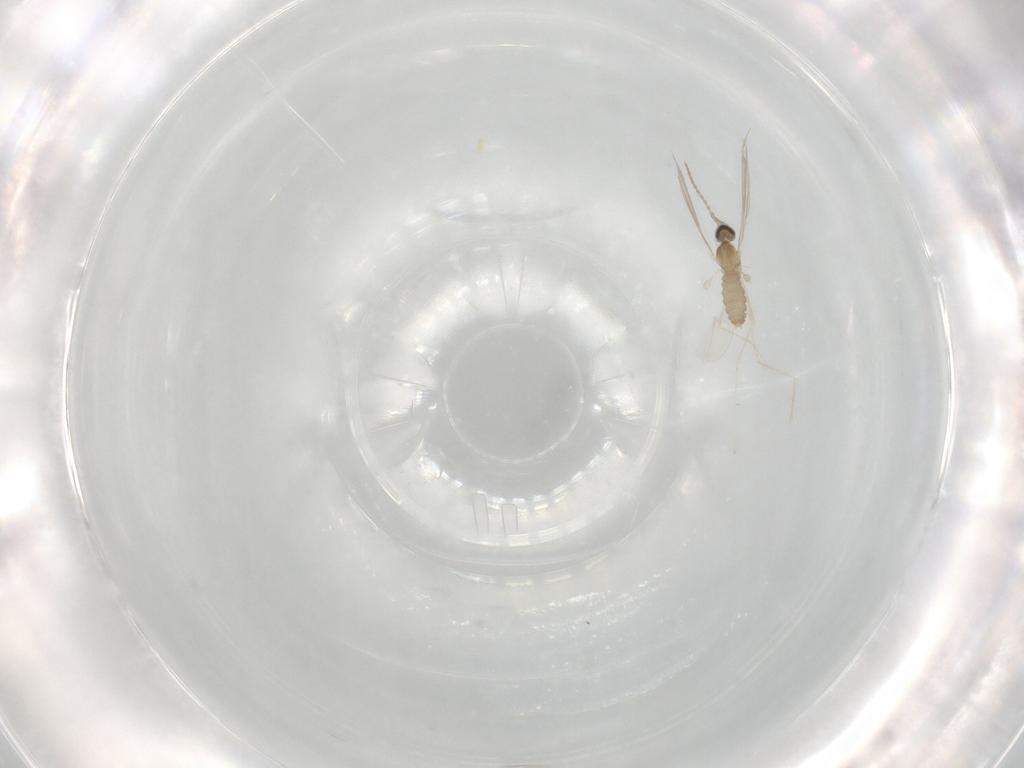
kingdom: Animalia
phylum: Arthropoda
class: Insecta
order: Diptera
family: Cecidomyiidae
